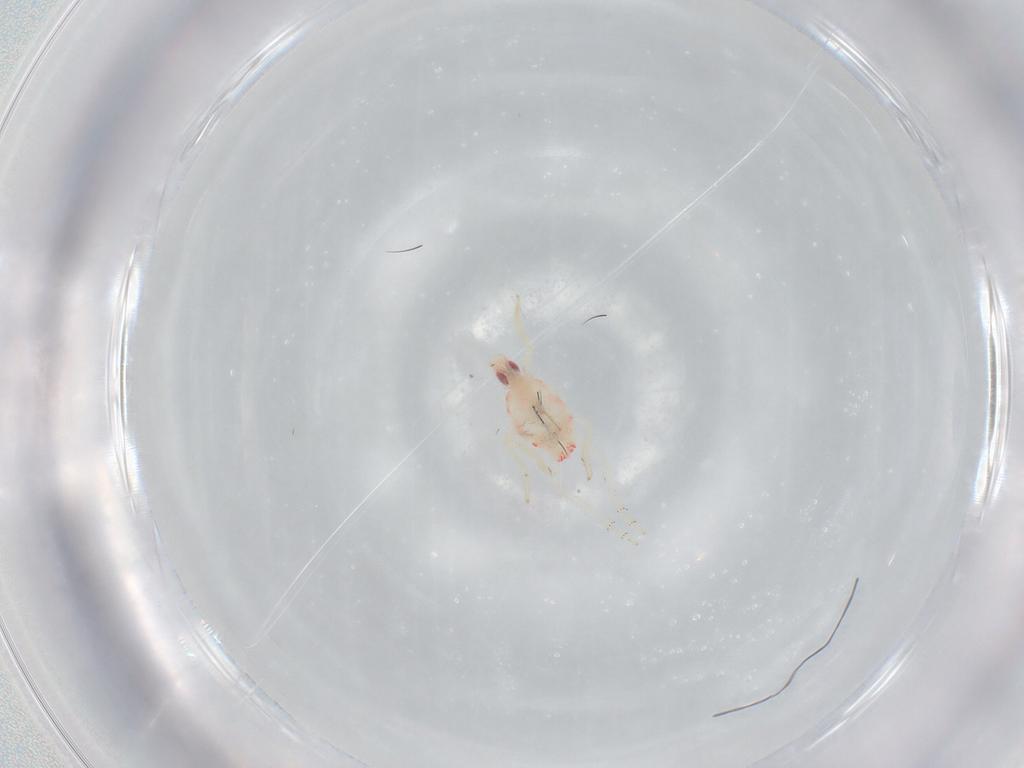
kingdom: Animalia
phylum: Arthropoda
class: Insecta
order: Hemiptera
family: Tropiduchidae
